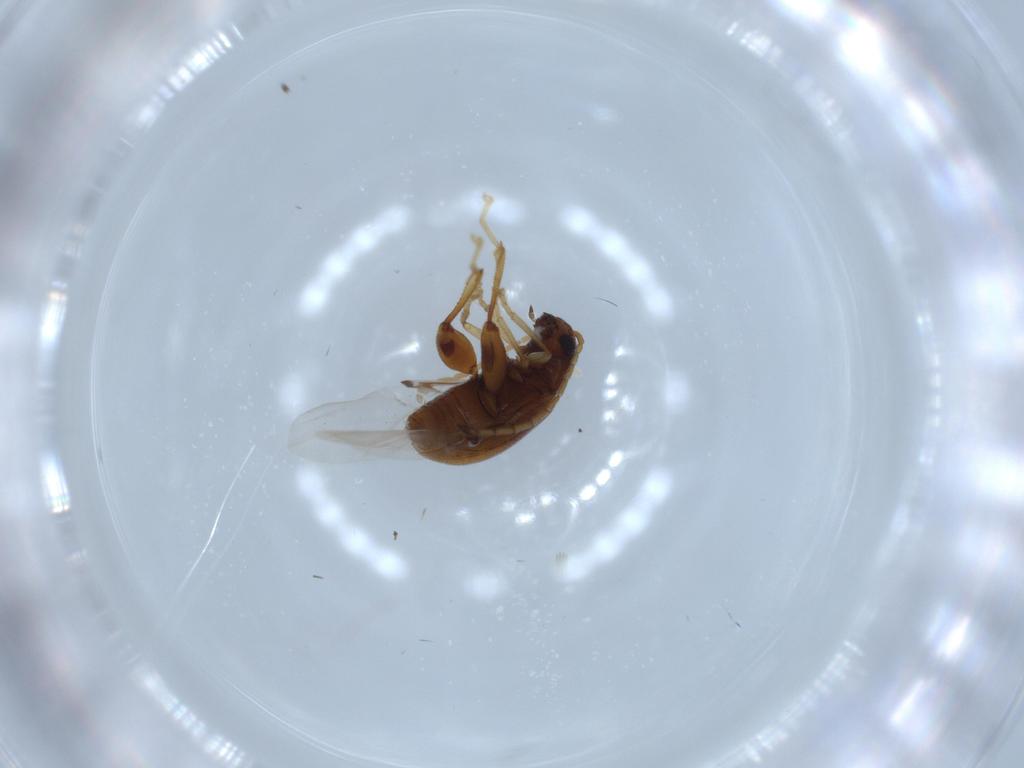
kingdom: Animalia
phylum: Arthropoda
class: Insecta
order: Coleoptera
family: Chrysomelidae
